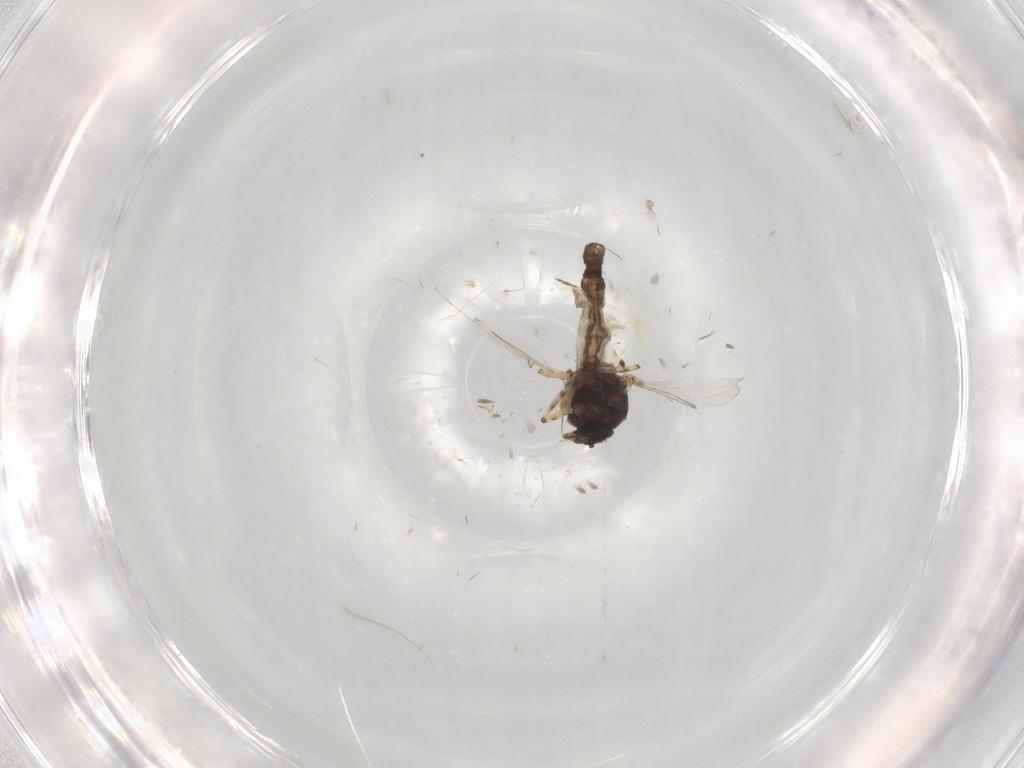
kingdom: Animalia
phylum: Arthropoda
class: Insecta
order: Diptera
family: Ceratopogonidae
